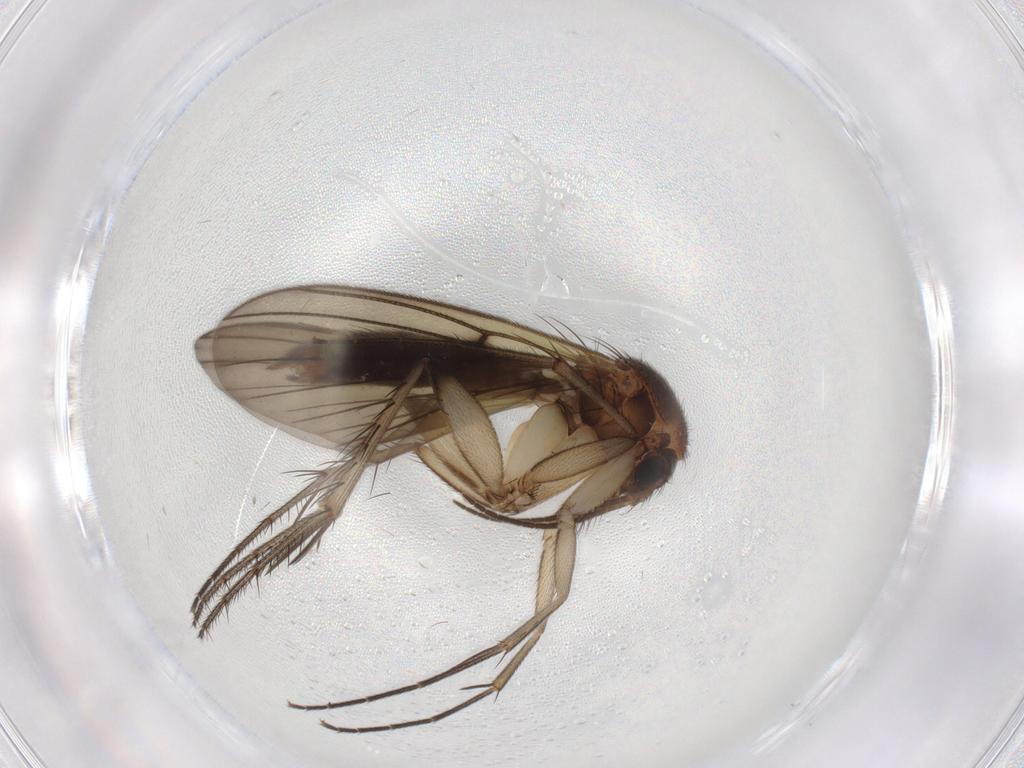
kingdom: Animalia
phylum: Arthropoda
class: Insecta
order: Diptera
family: Mycetophilidae
